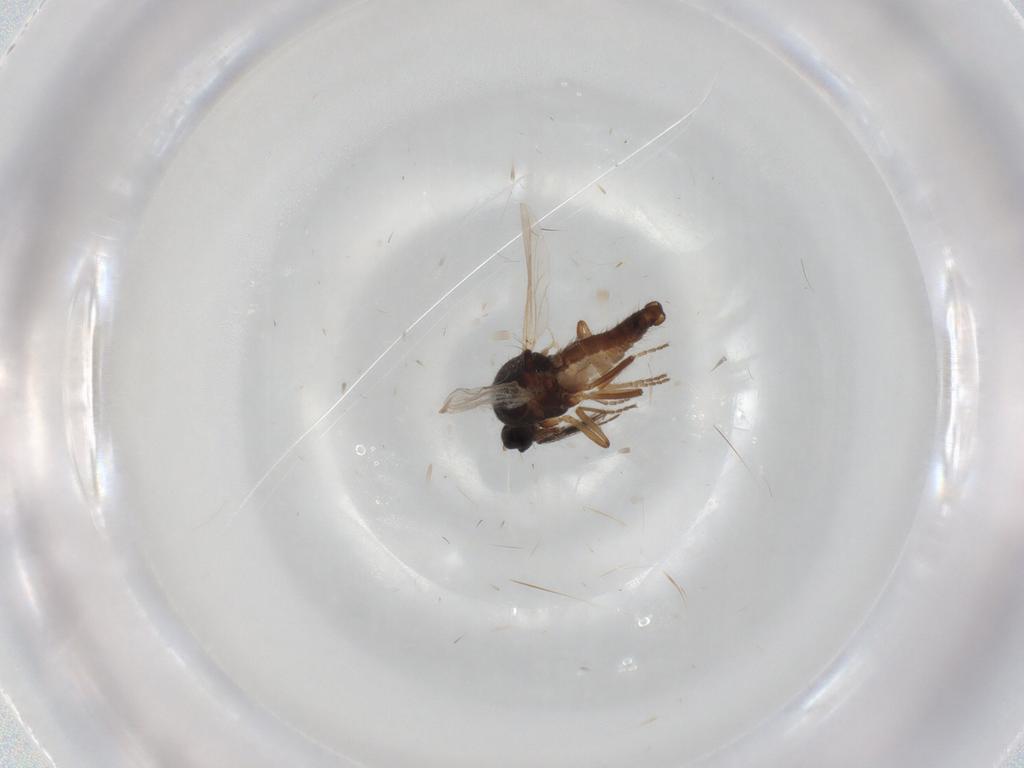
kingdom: Animalia
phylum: Arthropoda
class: Insecta
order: Diptera
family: Ceratopogonidae
